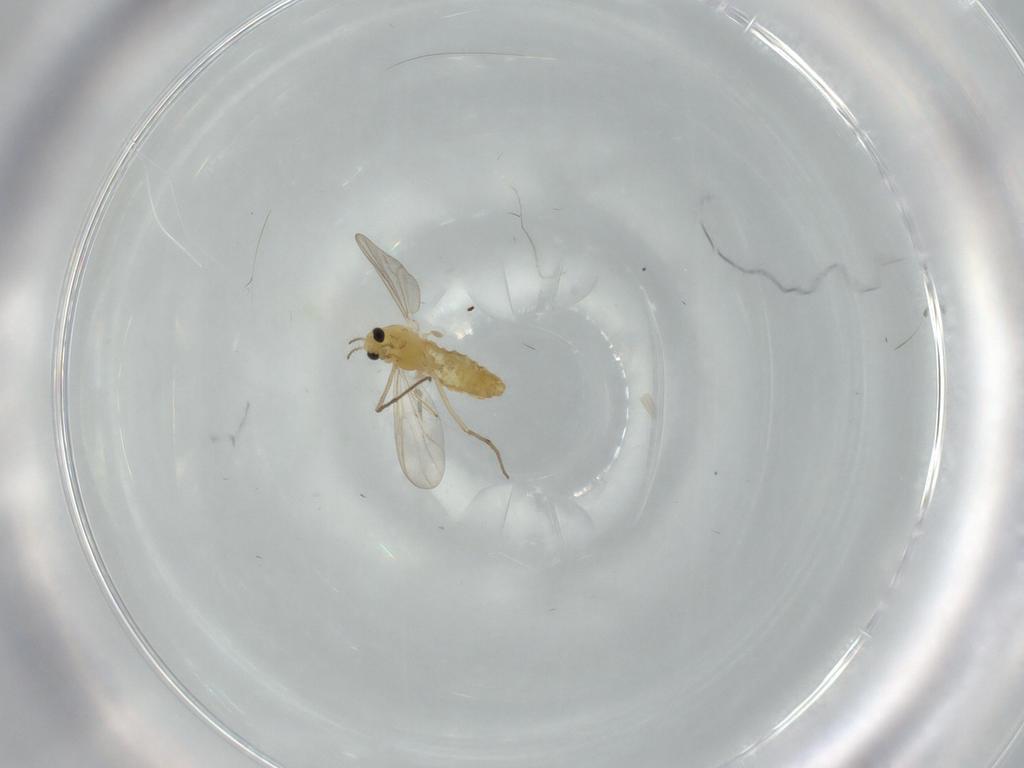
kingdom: Animalia
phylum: Arthropoda
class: Insecta
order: Diptera
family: Chironomidae
